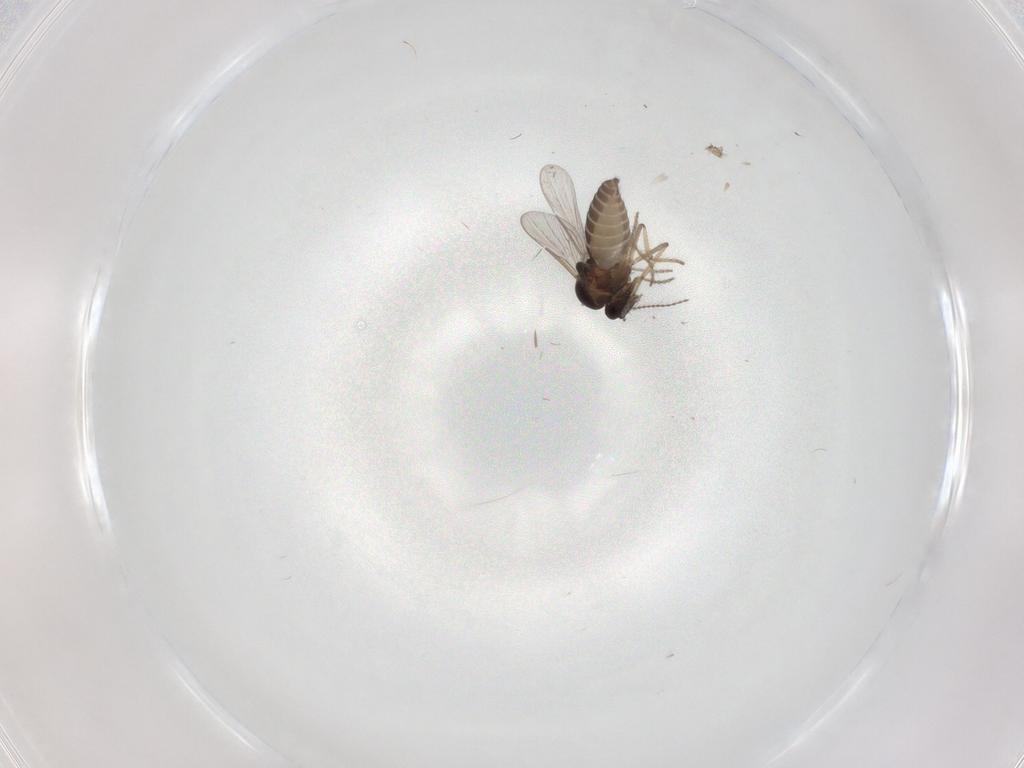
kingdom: Animalia
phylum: Arthropoda
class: Insecta
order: Diptera
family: Ceratopogonidae
